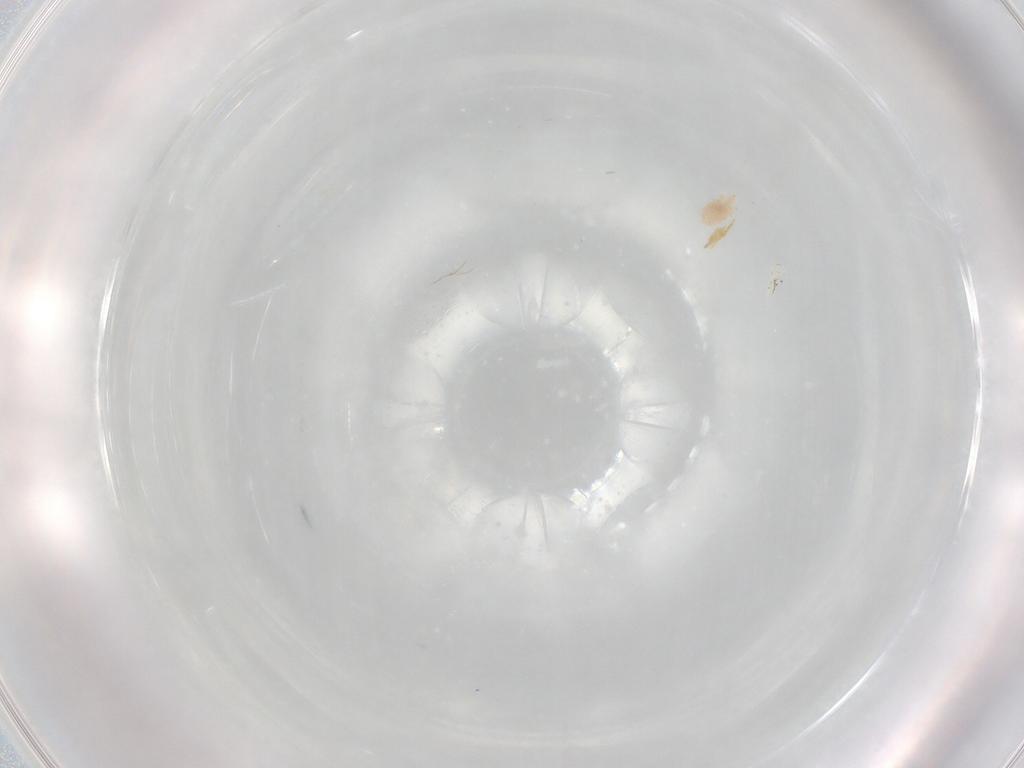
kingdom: Animalia
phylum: Arthropoda
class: Arachnida
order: Trombidiformes
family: Bdellidae
